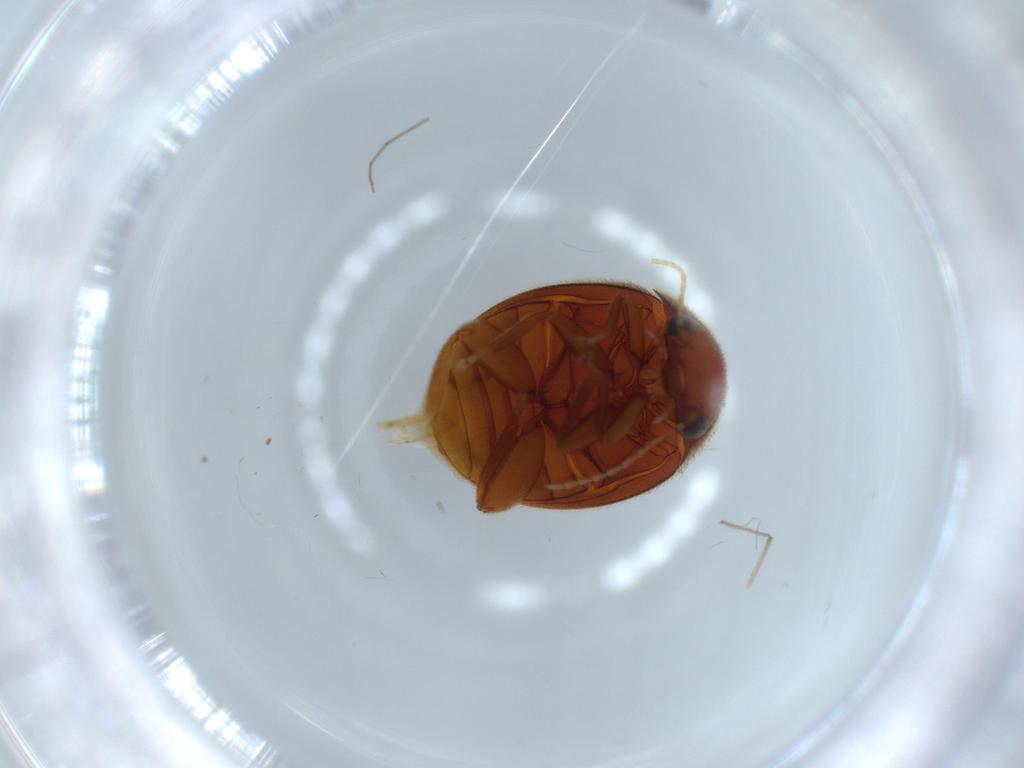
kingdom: Animalia
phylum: Arthropoda
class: Insecta
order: Coleoptera
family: Scirtidae
